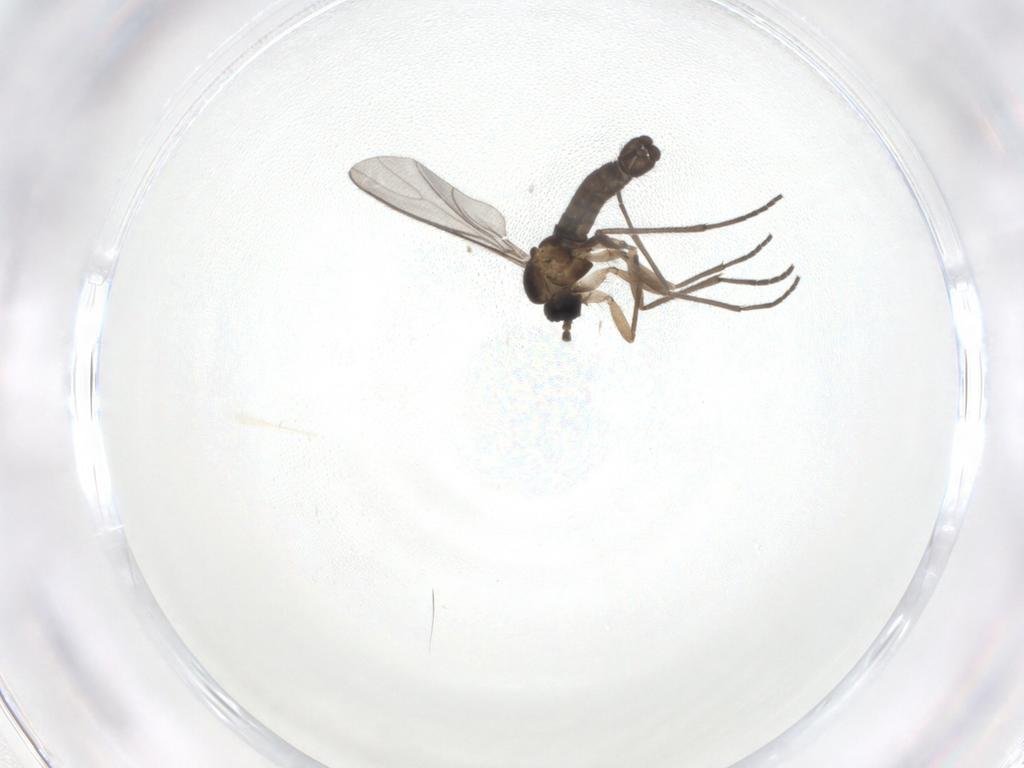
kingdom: Animalia
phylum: Arthropoda
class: Insecta
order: Diptera
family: Sciaridae
